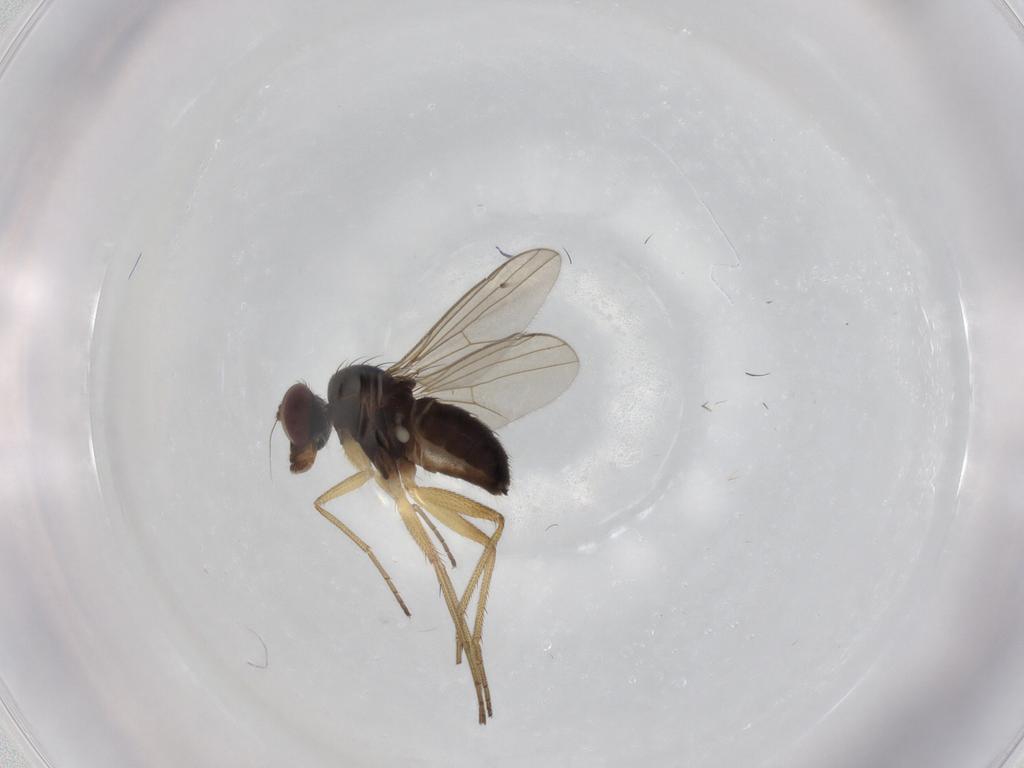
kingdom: Animalia
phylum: Arthropoda
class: Insecta
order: Diptera
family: Dolichopodidae
